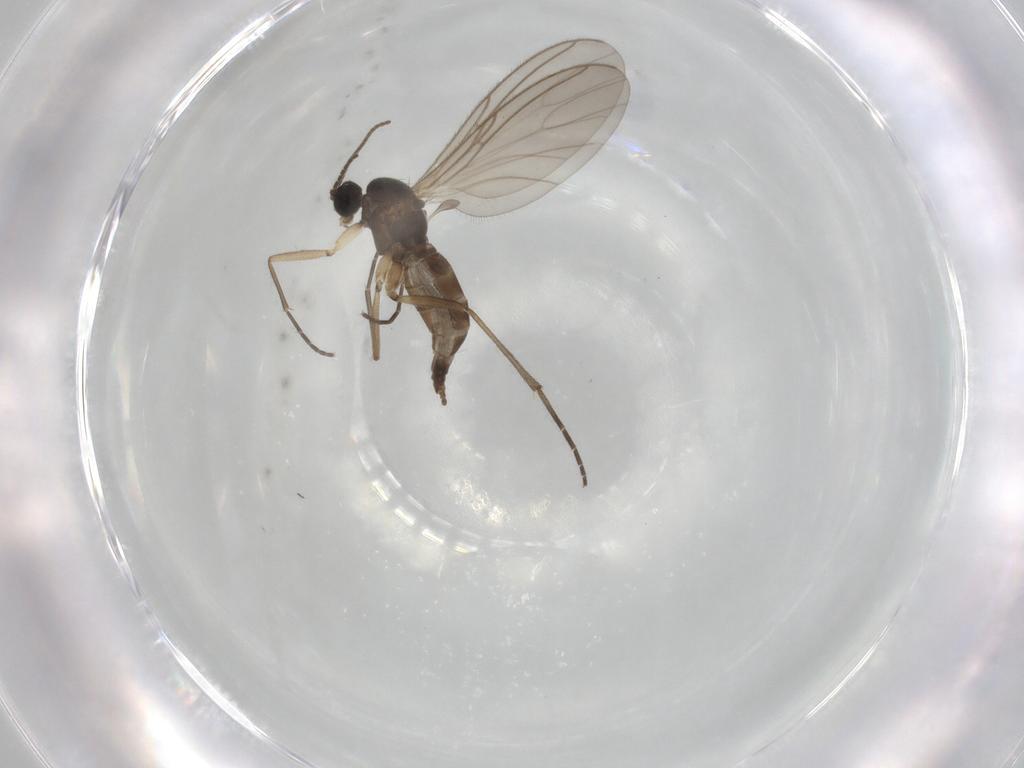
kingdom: Animalia
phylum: Arthropoda
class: Insecta
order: Diptera
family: Sciaridae
